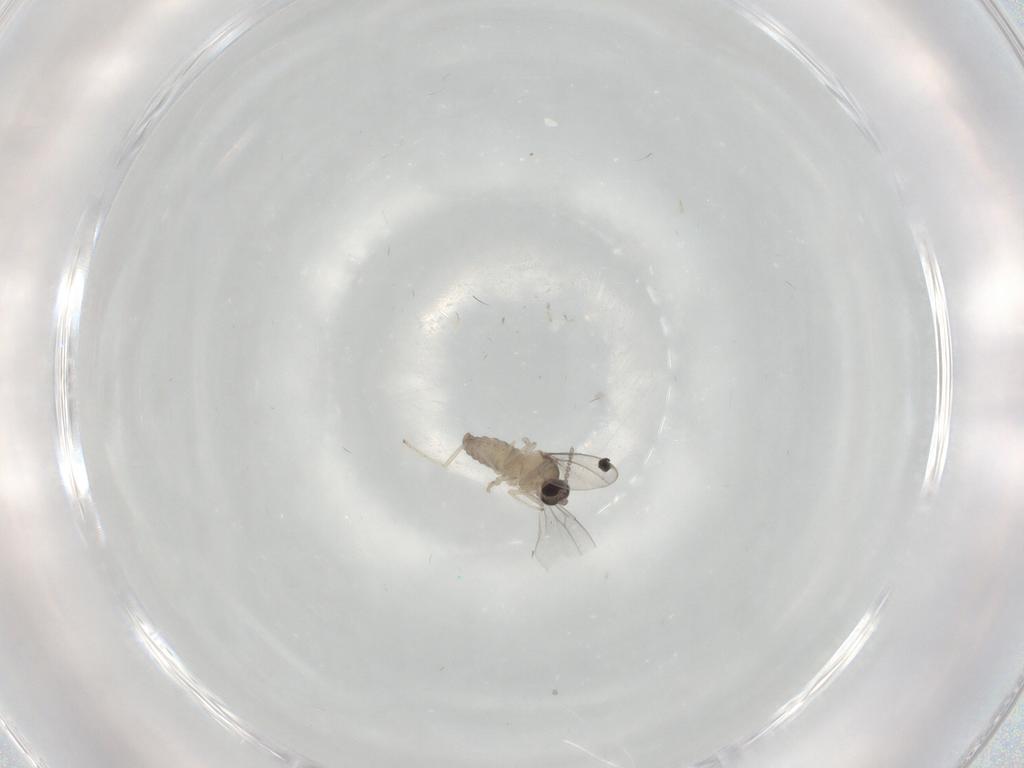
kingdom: Animalia
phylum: Arthropoda
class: Insecta
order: Diptera
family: Cecidomyiidae
